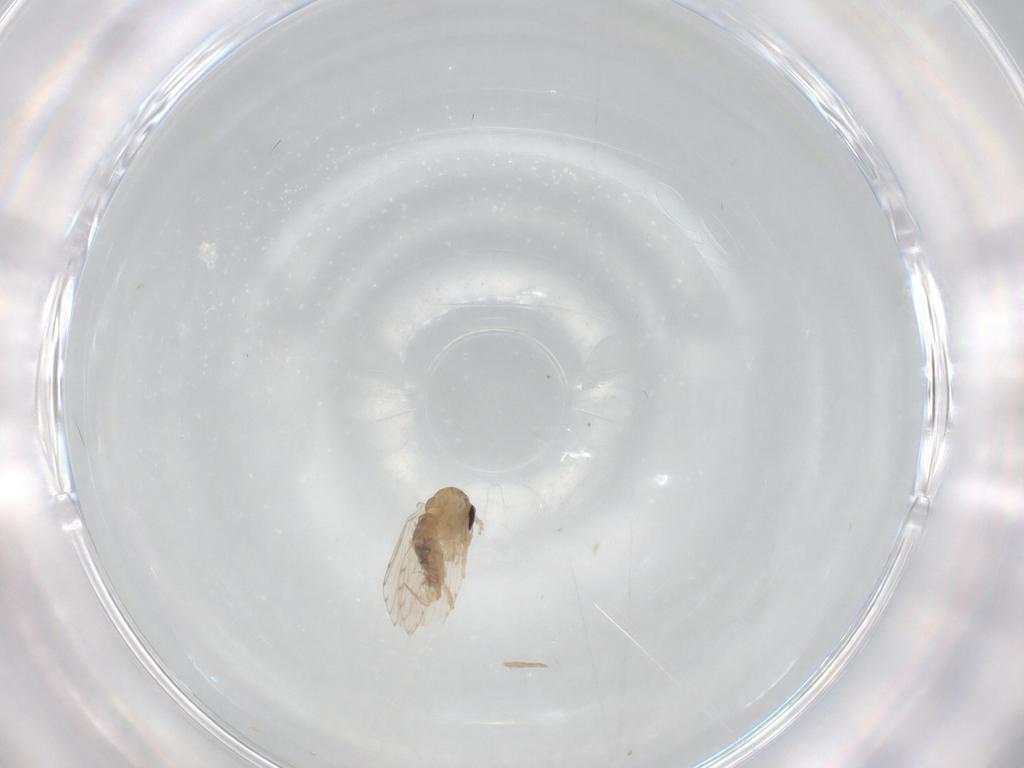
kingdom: Animalia
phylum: Arthropoda
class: Insecta
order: Diptera
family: Psychodidae
